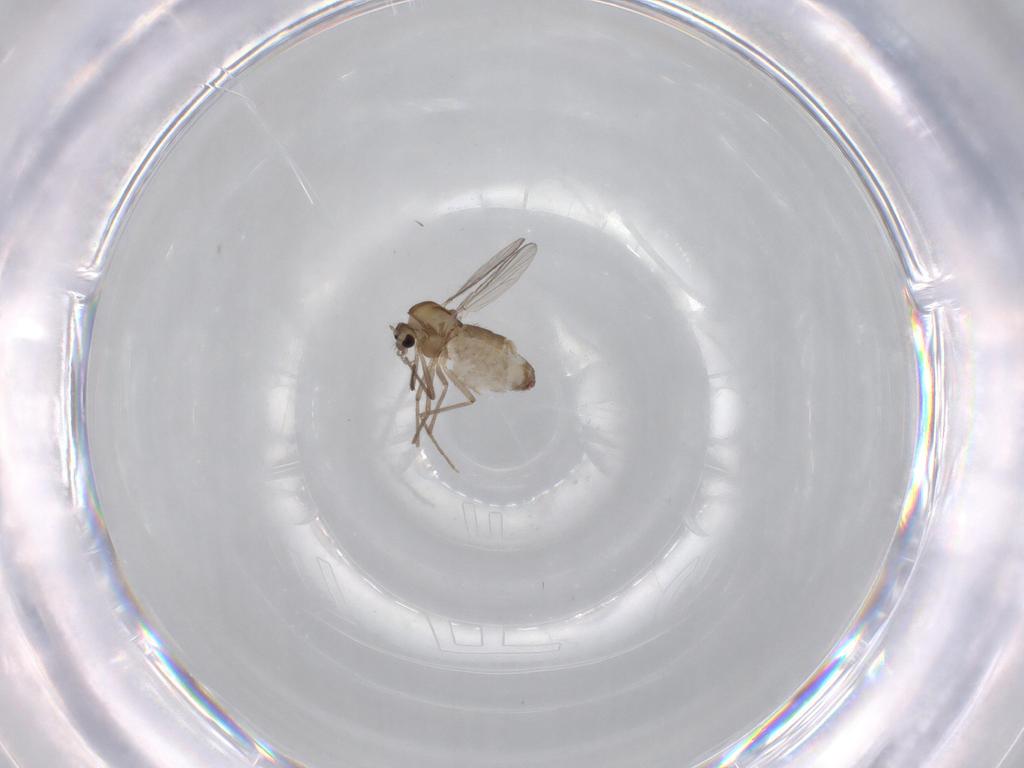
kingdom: Animalia
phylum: Arthropoda
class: Insecta
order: Diptera
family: Chironomidae
